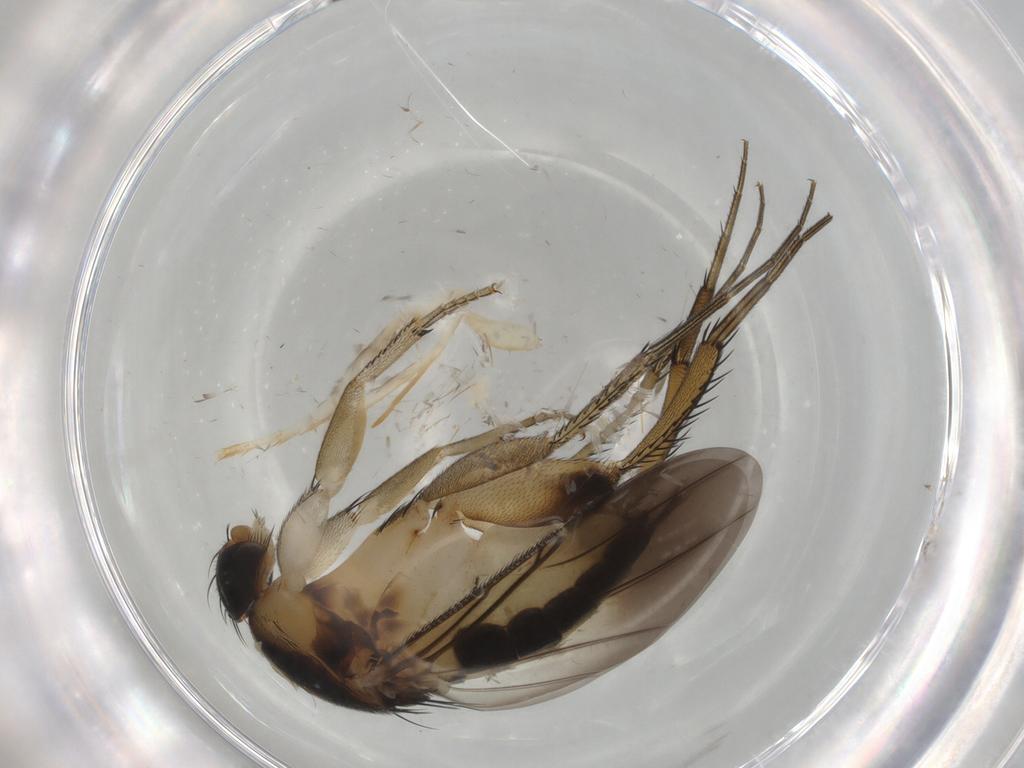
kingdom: Animalia
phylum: Arthropoda
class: Insecta
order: Diptera
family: Phoridae
